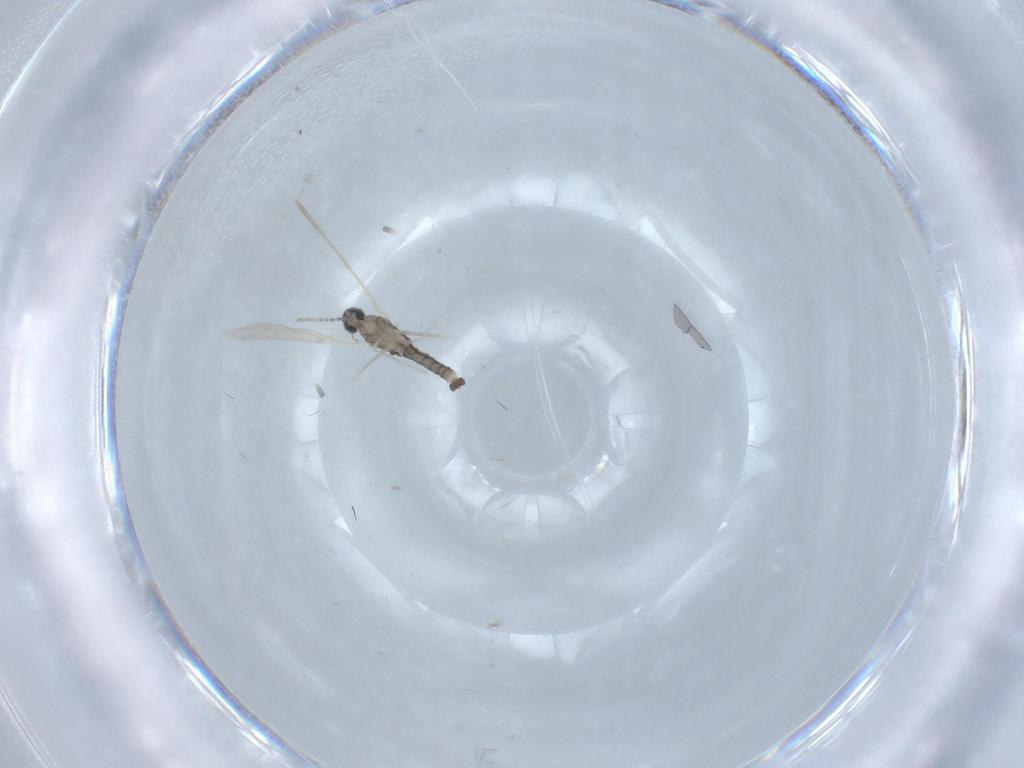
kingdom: Animalia
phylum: Arthropoda
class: Insecta
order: Diptera
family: Cecidomyiidae
